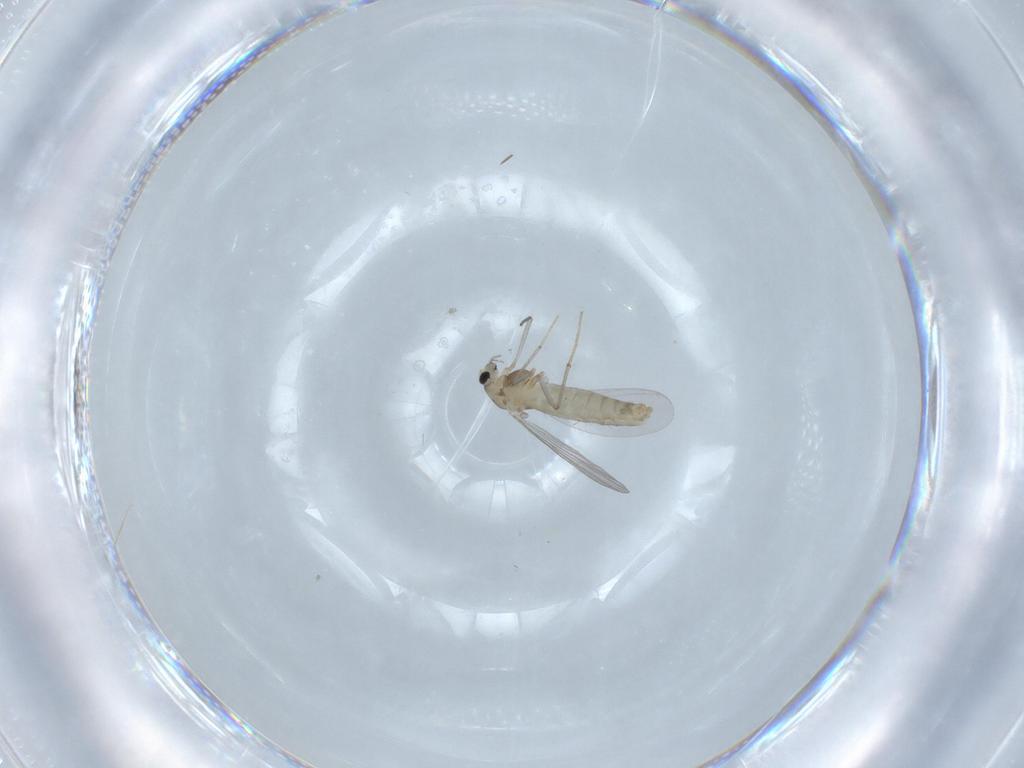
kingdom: Animalia
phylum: Arthropoda
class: Insecta
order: Diptera
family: Chironomidae
